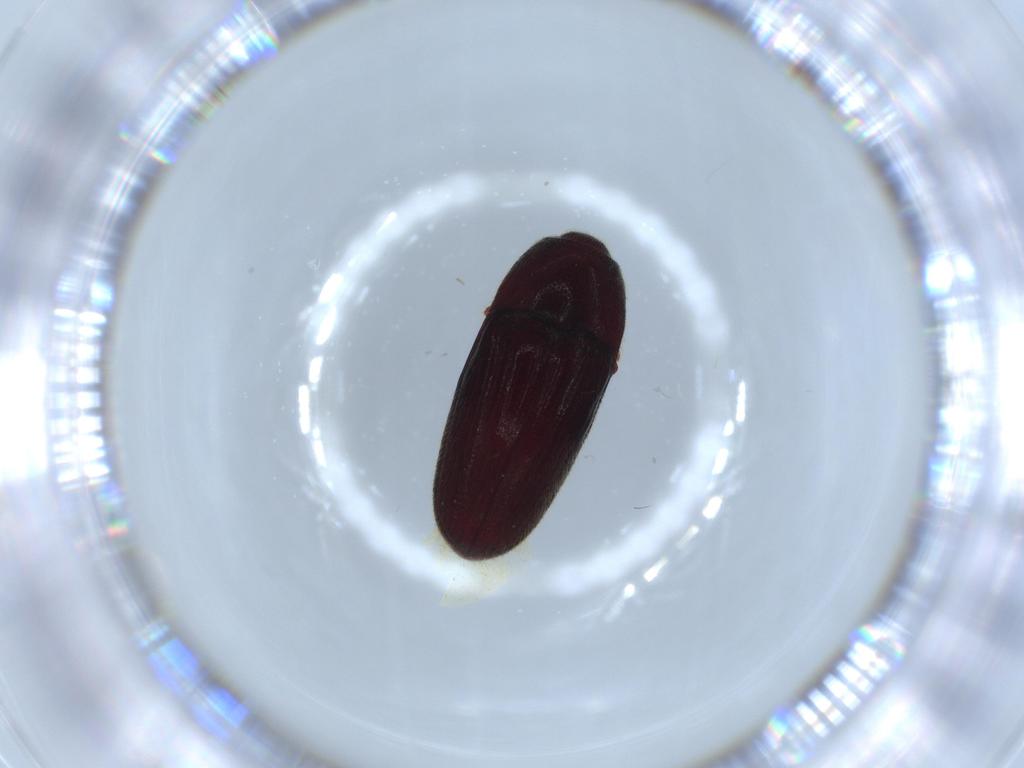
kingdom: Animalia
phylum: Arthropoda
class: Insecta
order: Coleoptera
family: Throscidae
